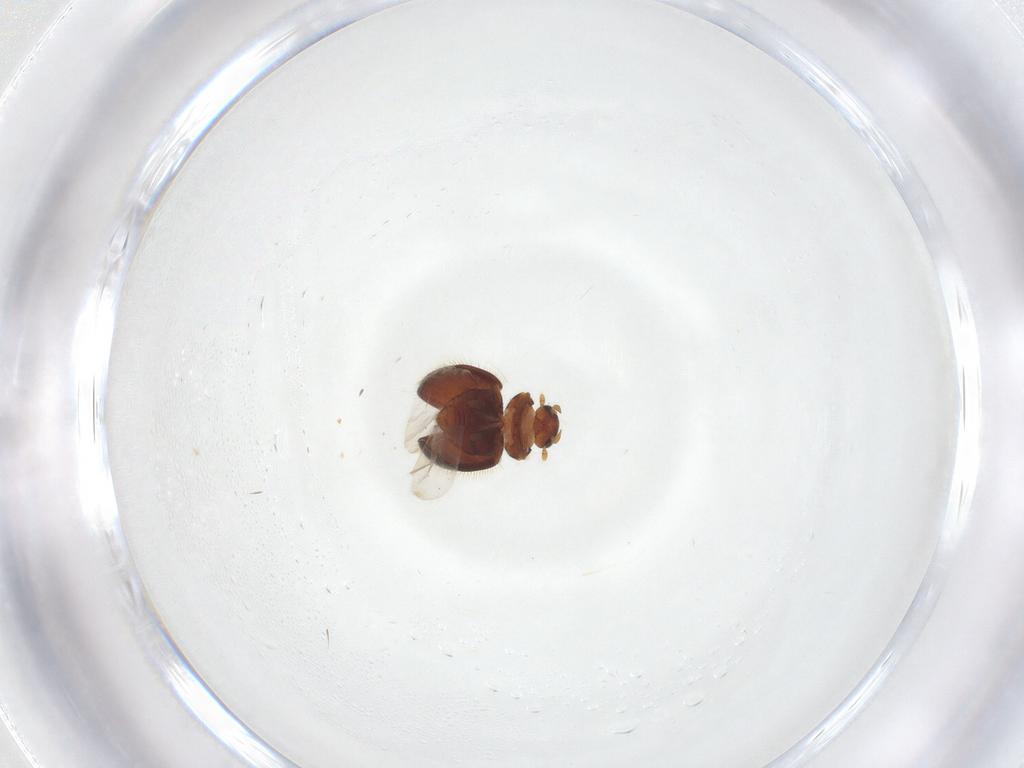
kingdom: Animalia
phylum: Arthropoda
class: Insecta
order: Coleoptera
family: Coccinellidae
